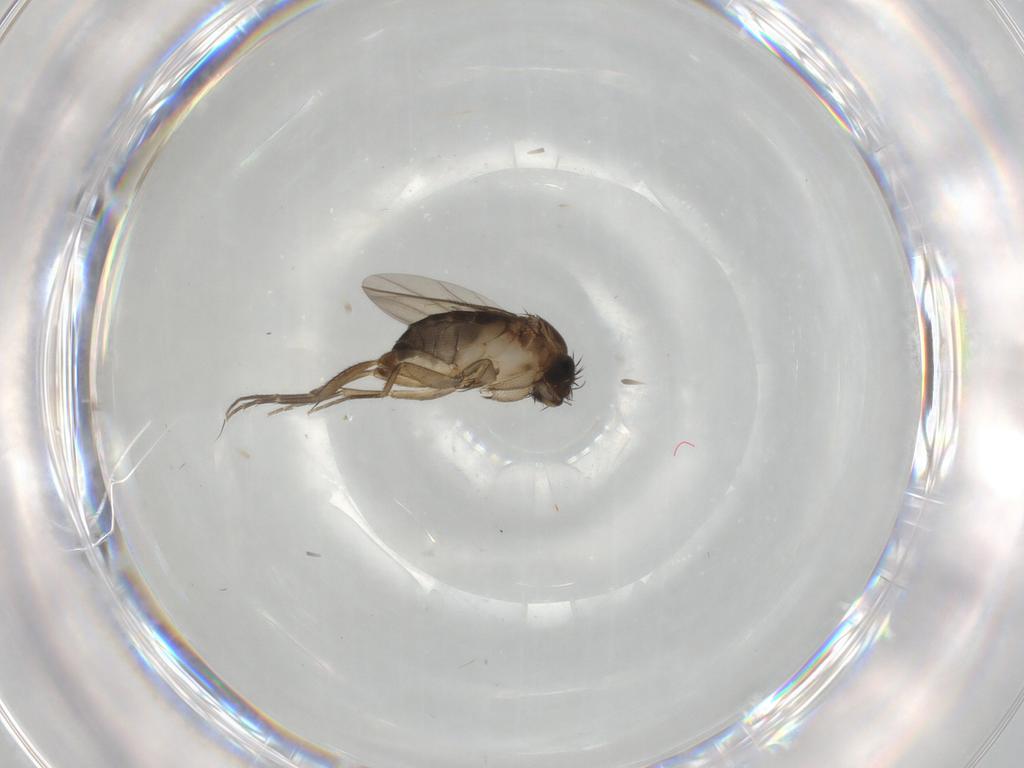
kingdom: Animalia
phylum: Arthropoda
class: Insecta
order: Diptera
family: Phoridae
